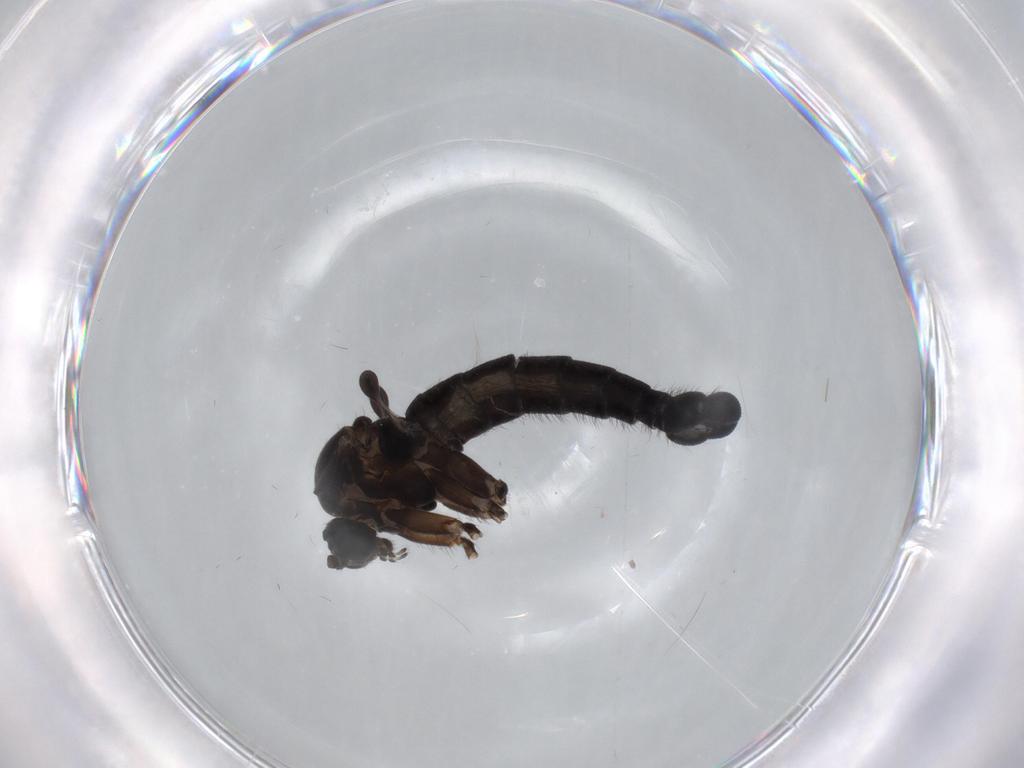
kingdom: Animalia
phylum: Arthropoda
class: Insecta
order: Diptera
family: Sciaridae
